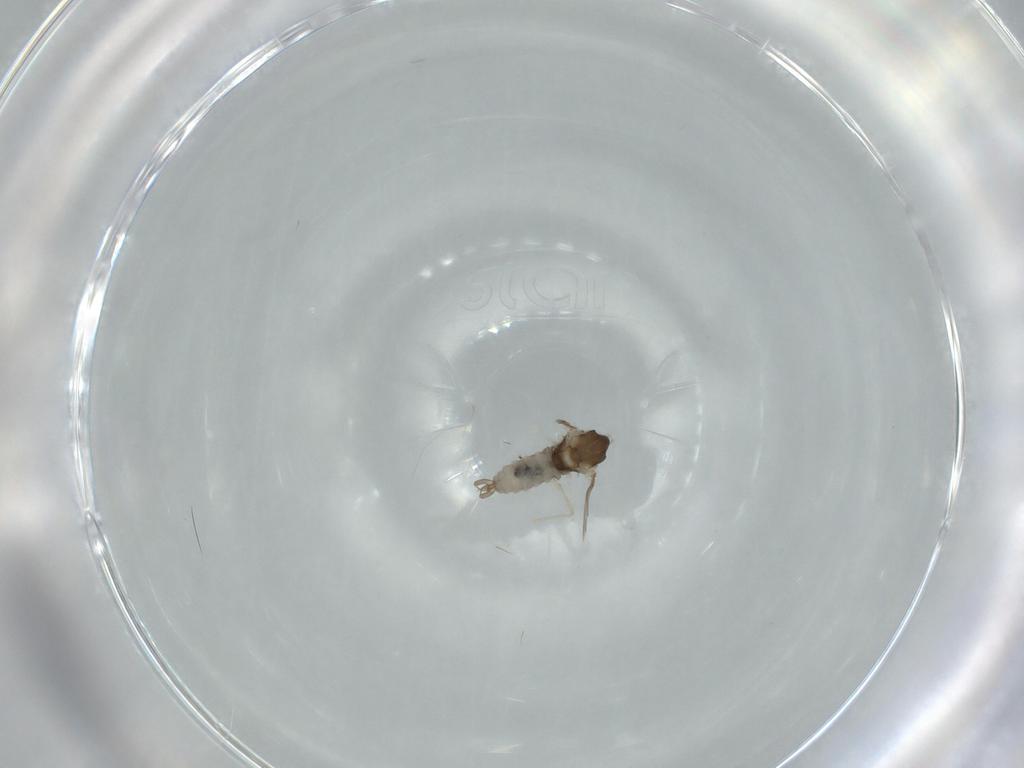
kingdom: Animalia
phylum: Arthropoda
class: Insecta
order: Diptera
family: Cecidomyiidae
